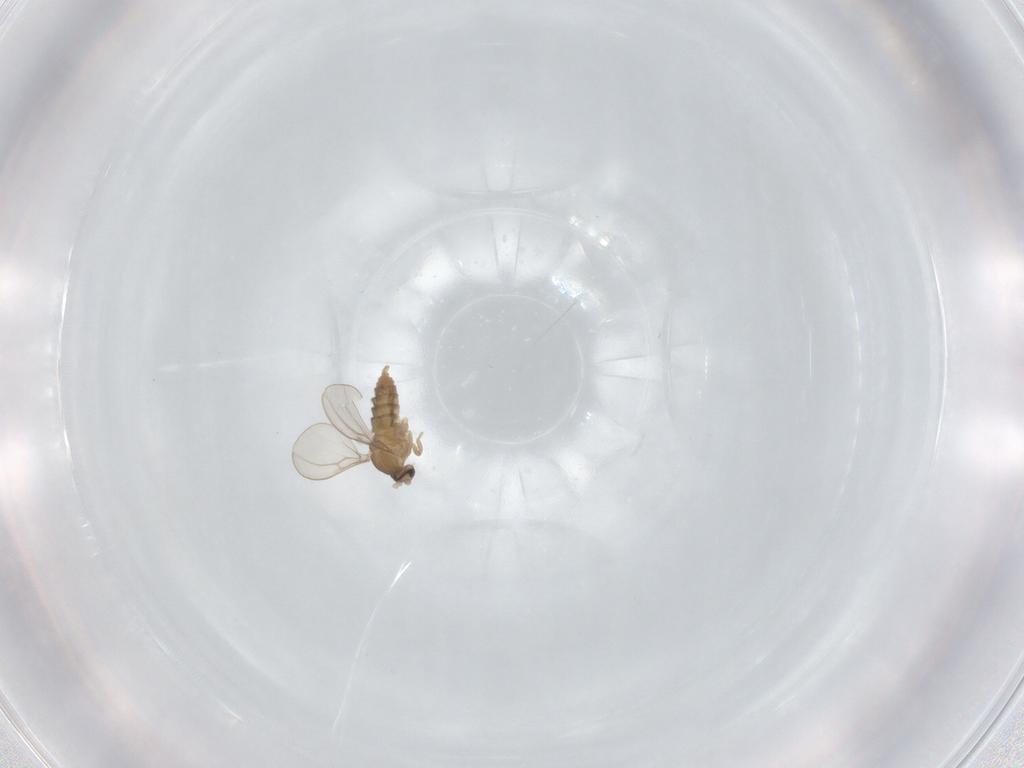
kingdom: Animalia
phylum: Arthropoda
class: Insecta
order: Diptera
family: Cecidomyiidae
